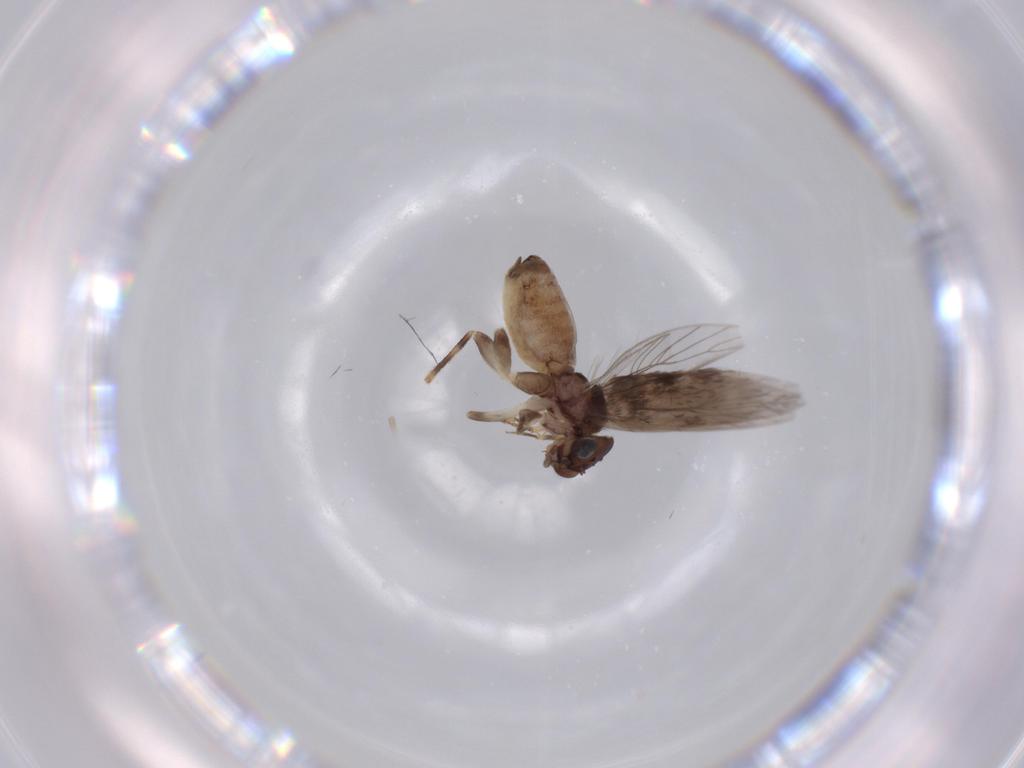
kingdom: Animalia
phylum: Arthropoda
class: Insecta
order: Psocodea
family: Lepidopsocidae
